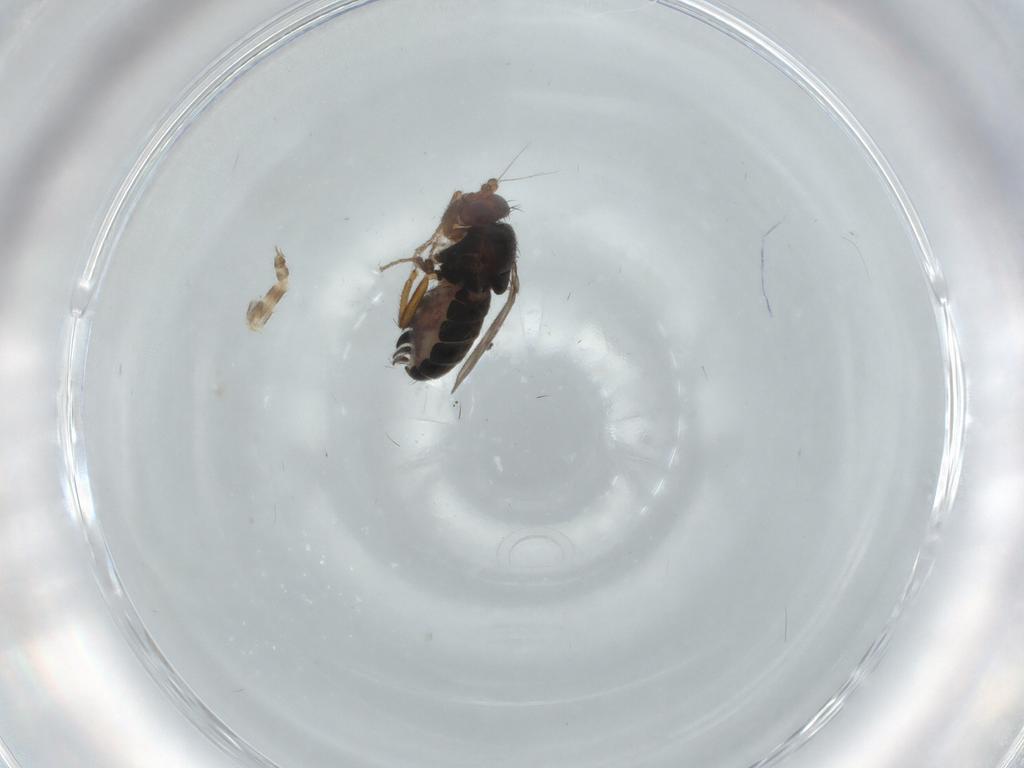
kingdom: Animalia
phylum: Arthropoda
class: Insecta
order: Diptera
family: Sphaeroceridae
